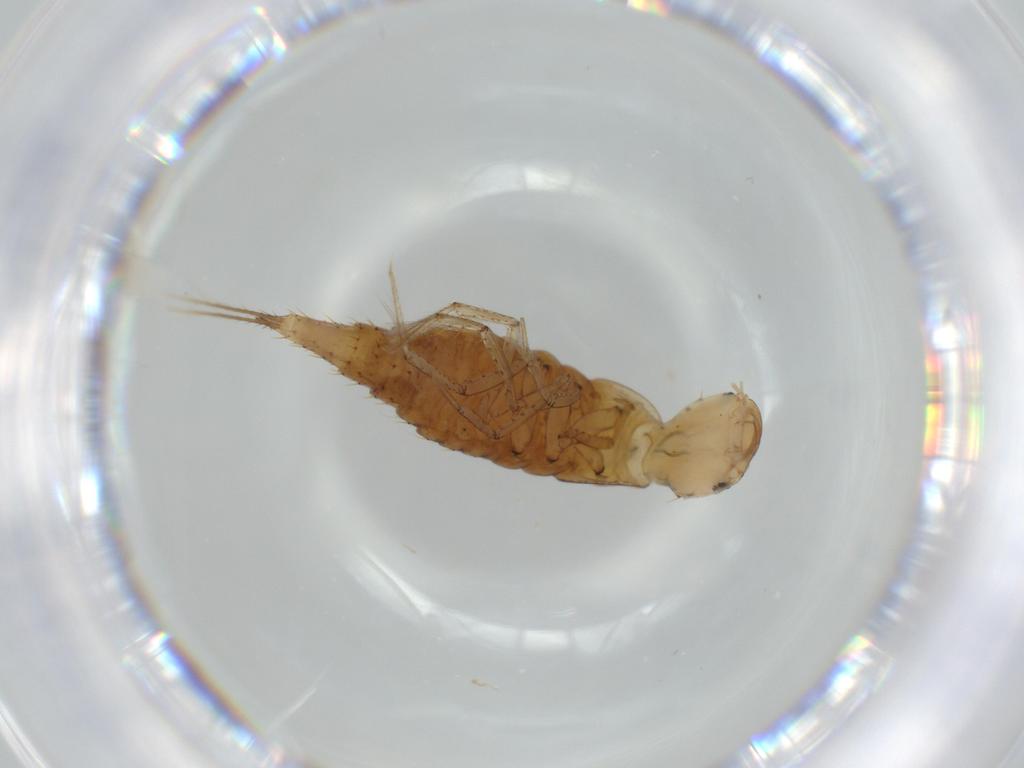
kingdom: Animalia
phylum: Arthropoda
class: Insecta
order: Coleoptera
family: Dytiscidae
